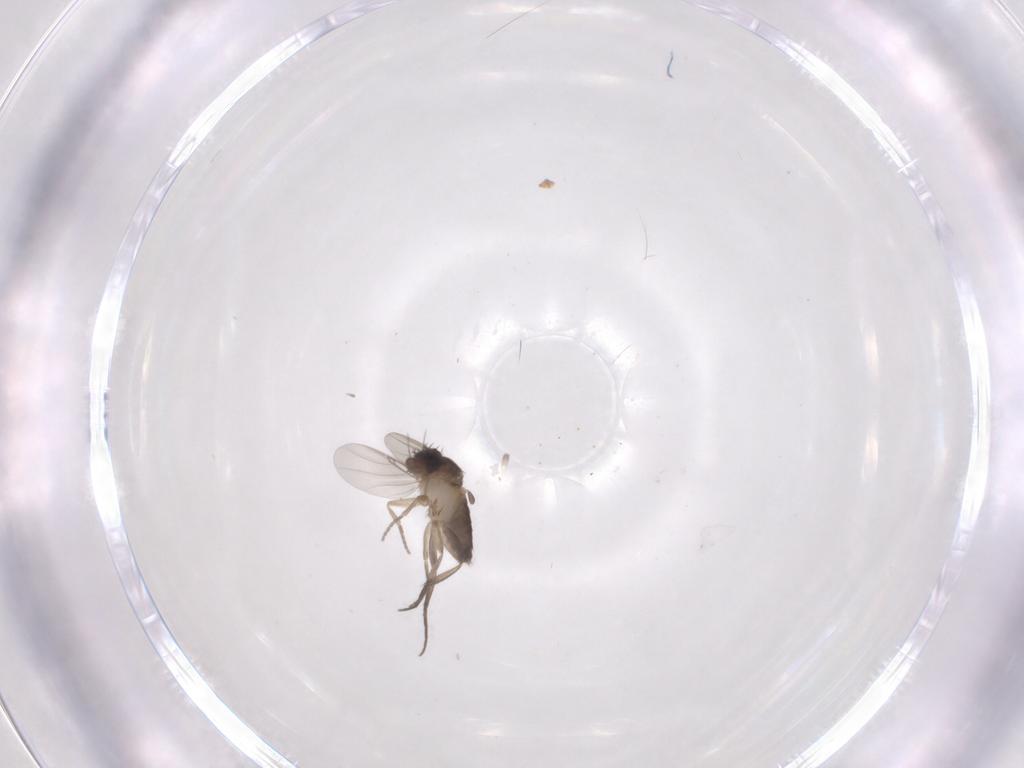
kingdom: Animalia
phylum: Arthropoda
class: Insecta
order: Diptera
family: Phoridae
